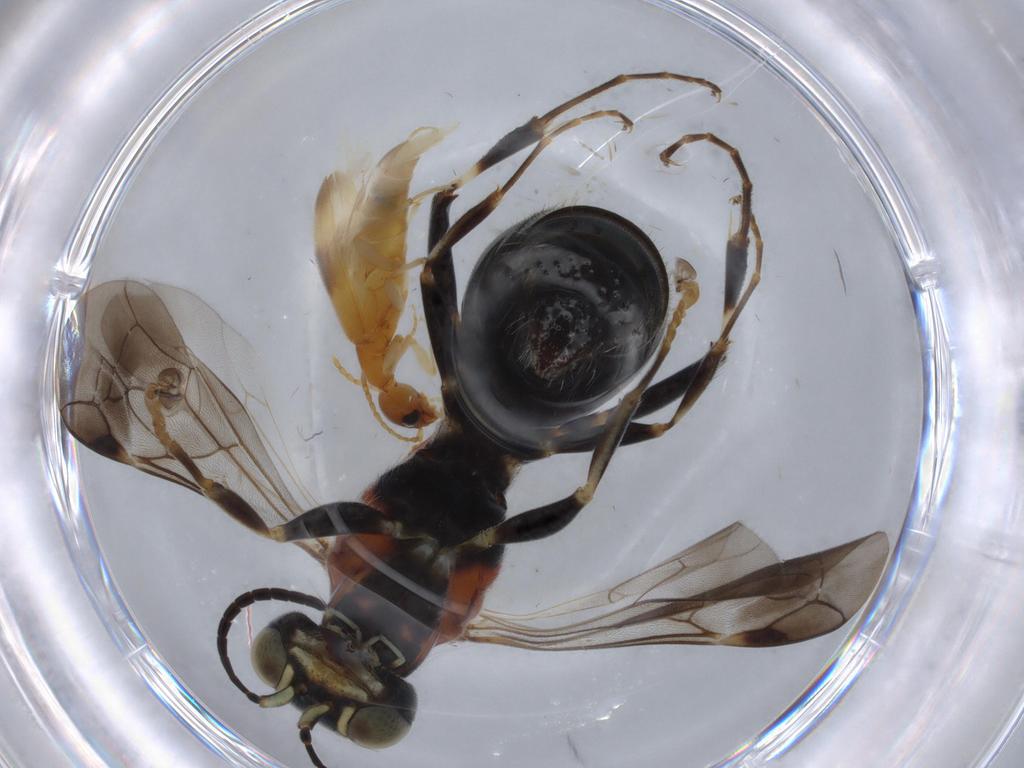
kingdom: Animalia
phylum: Arthropoda
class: Insecta
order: Hymenoptera
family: Bembicidae
